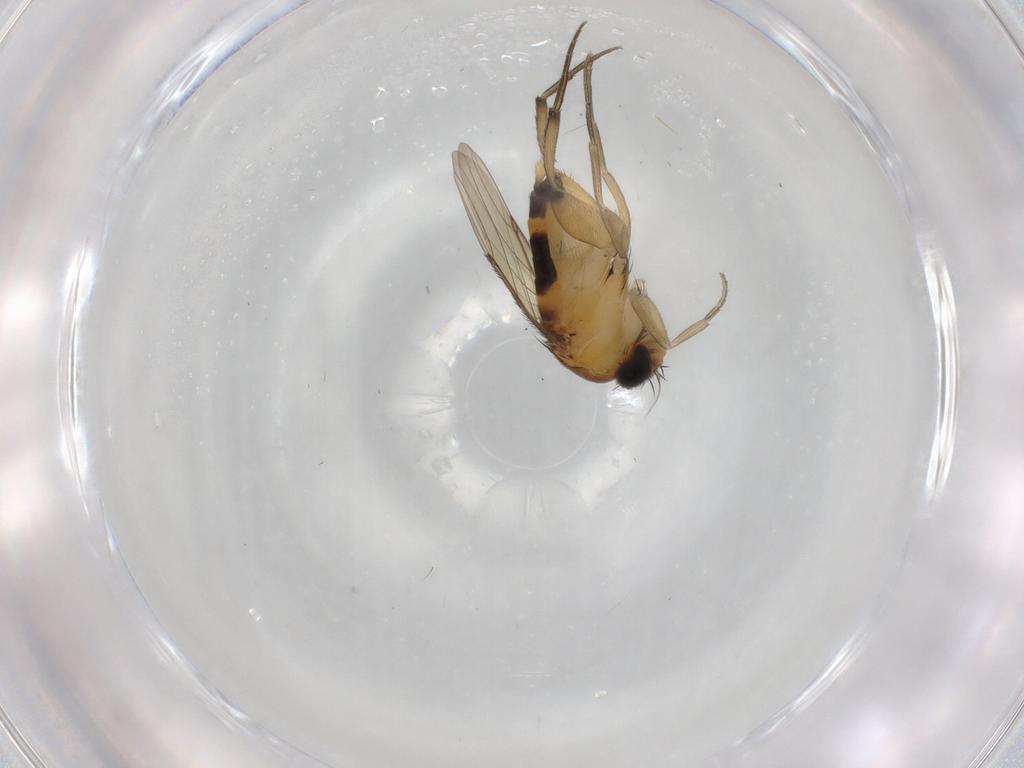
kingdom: Animalia
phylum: Arthropoda
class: Insecta
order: Diptera
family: Phoridae
